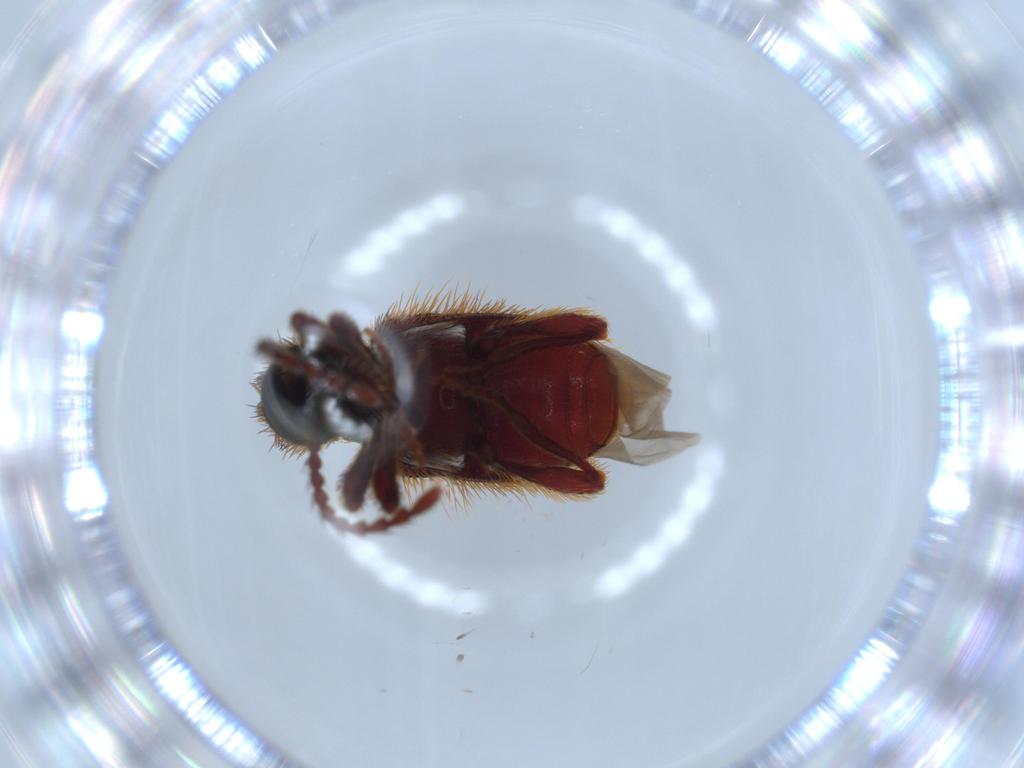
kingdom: Animalia
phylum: Arthropoda
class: Insecta
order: Coleoptera
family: Ptinidae
